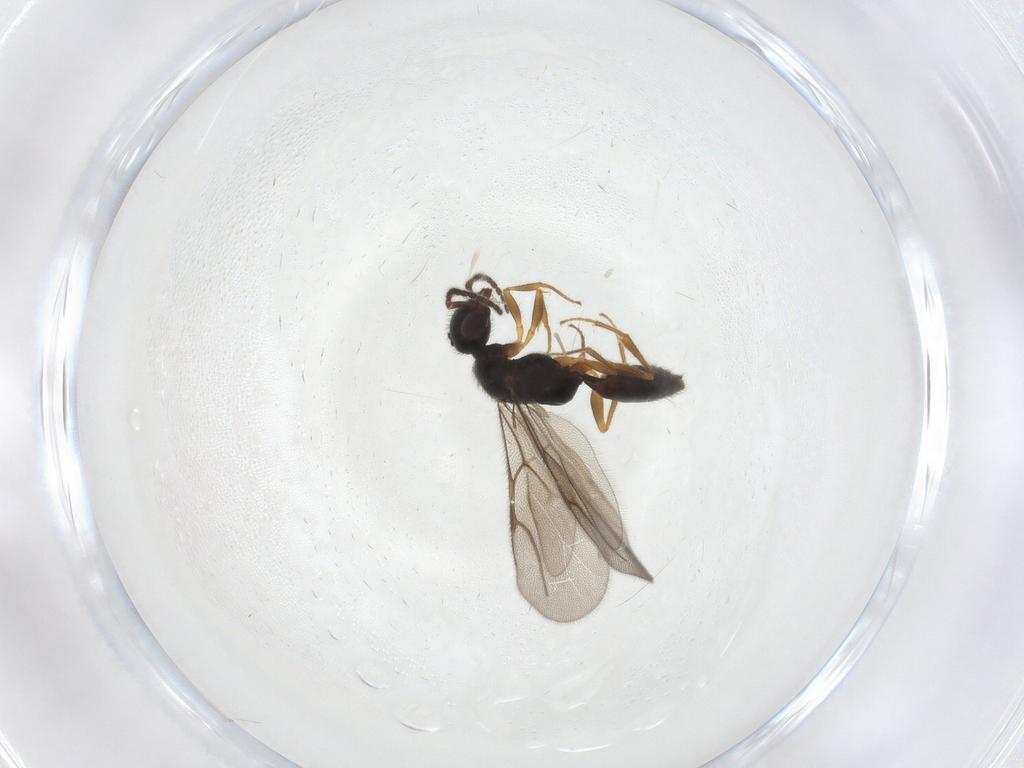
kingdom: Animalia
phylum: Arthropoda
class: Insecta
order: Hymenoptera
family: Bethylidae
